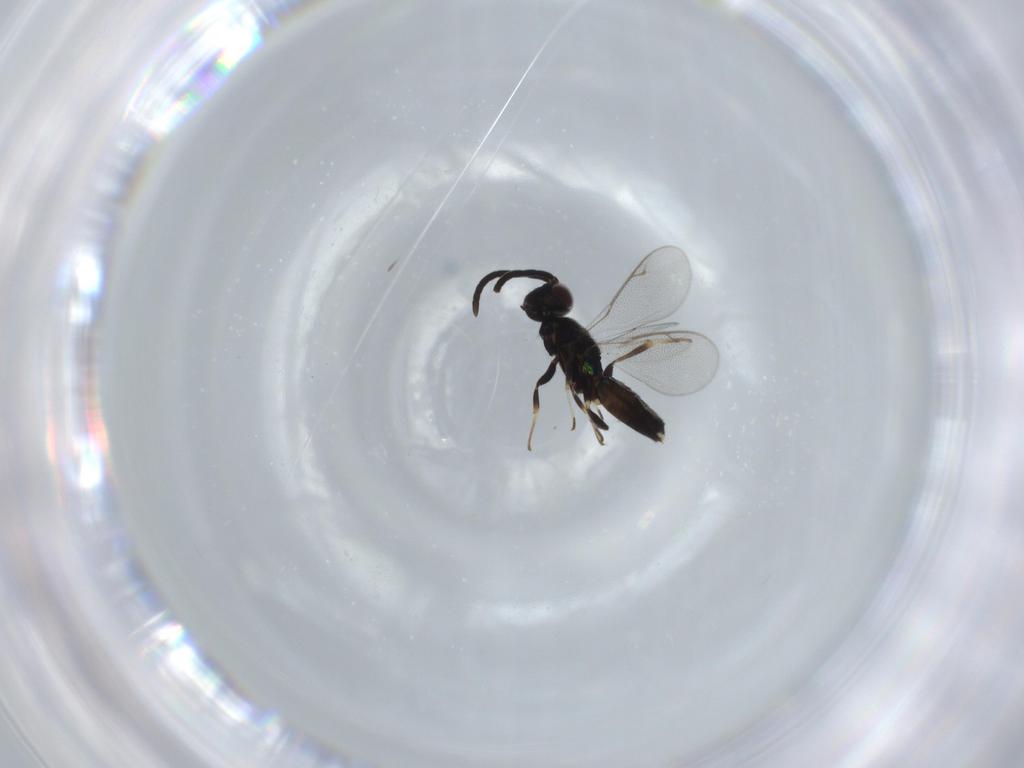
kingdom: Animalia
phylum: Arthropoda
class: Insecta
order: Hymenoptera
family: Eupelmidae
